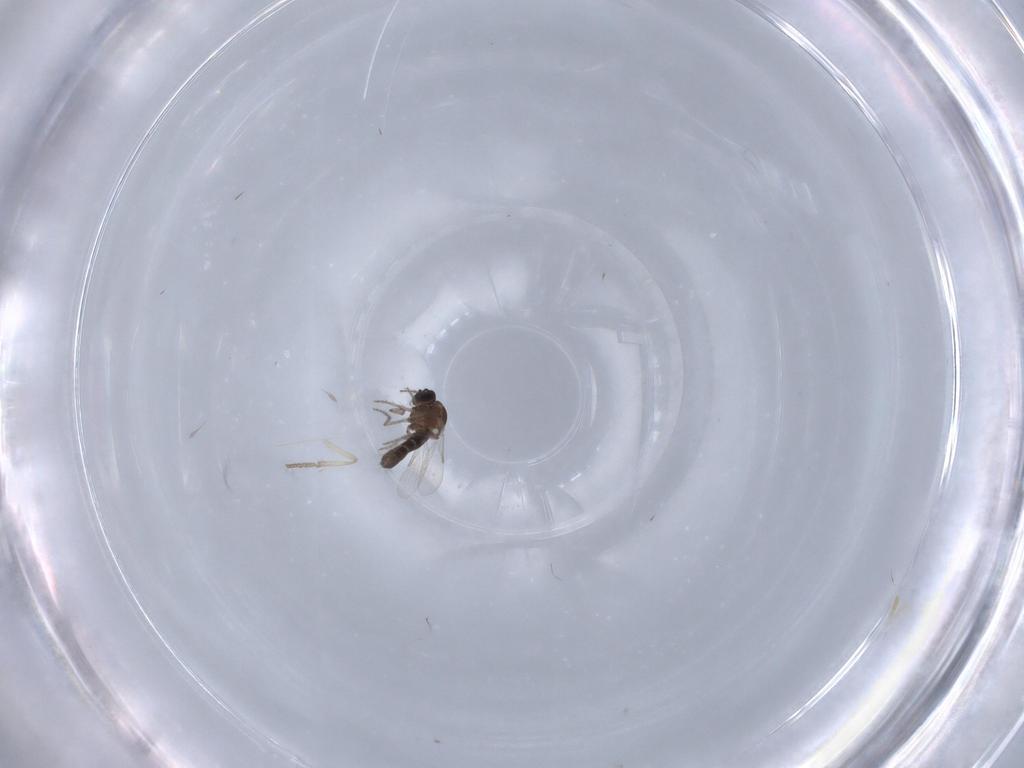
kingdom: Animalia
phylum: Arthropoda
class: Insecta
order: Diptera
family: Psychodidae
